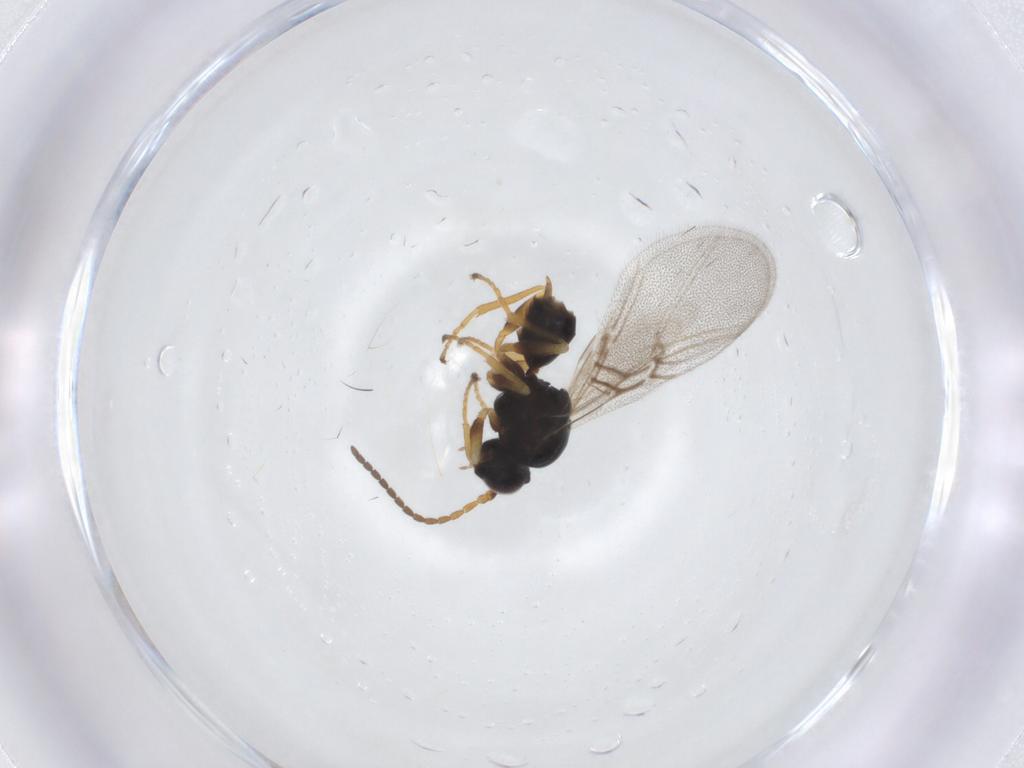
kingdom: Animalia
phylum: Arthropoda
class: Insecta
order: Hymenoptera
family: Cynipidae
